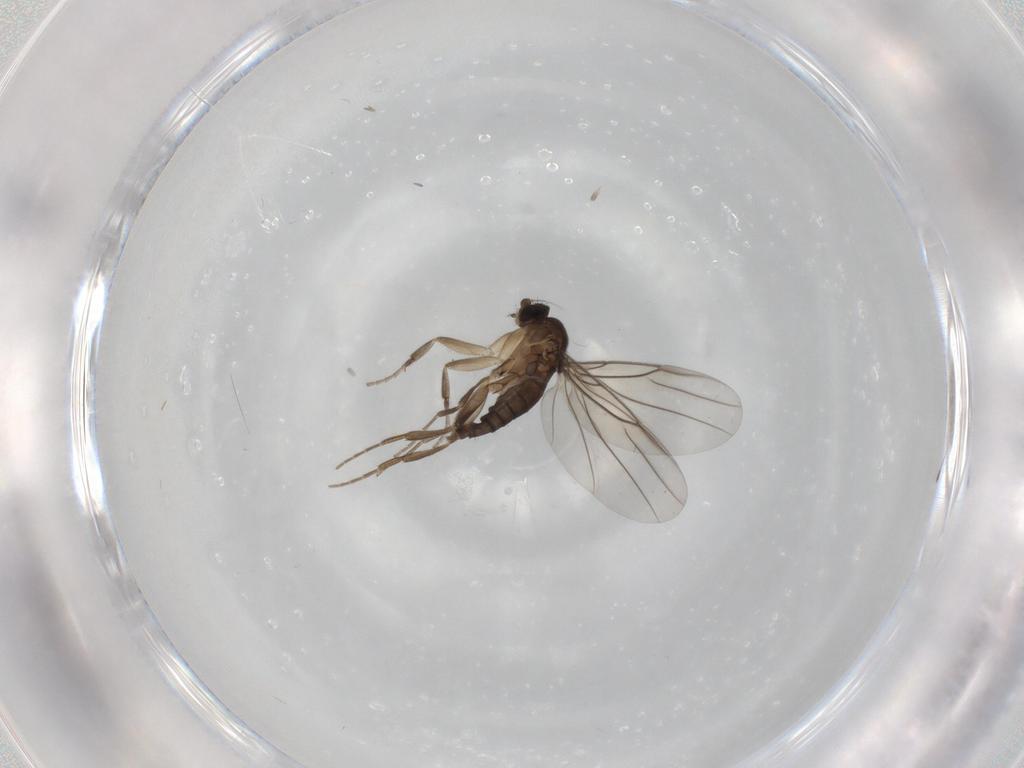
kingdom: Animalia
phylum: Arthropoda
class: Insecta
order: Diptera
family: Phoridae
